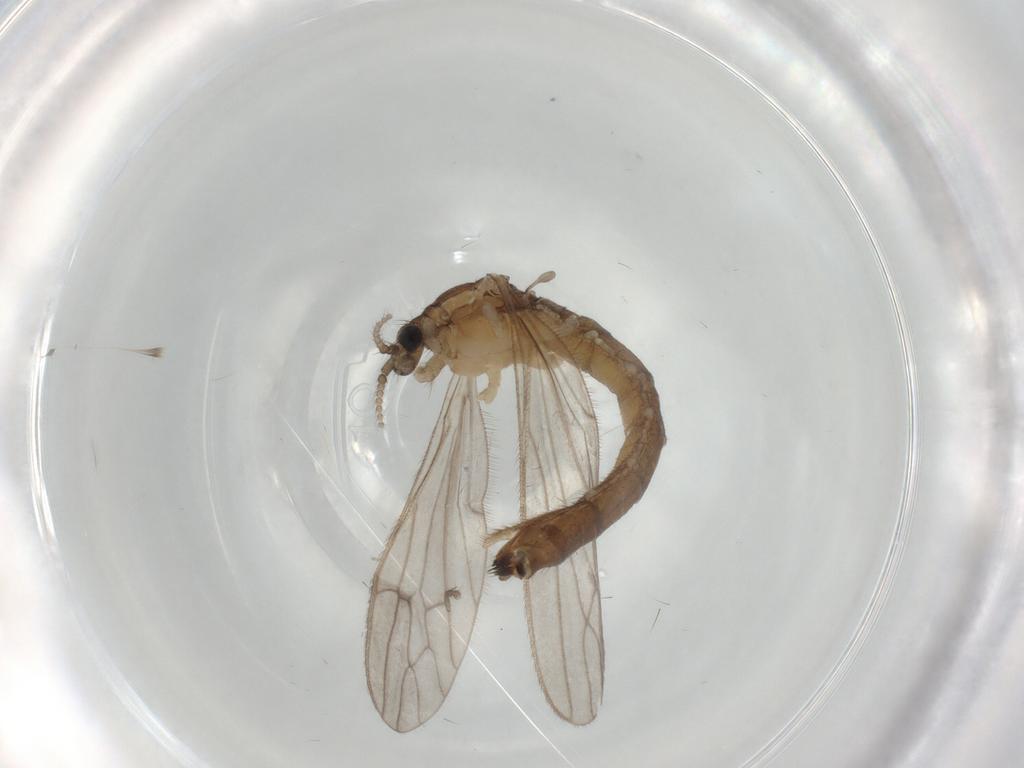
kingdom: Animalia
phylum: Arthropoda
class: Insecta
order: Diptera
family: Limoniidae
